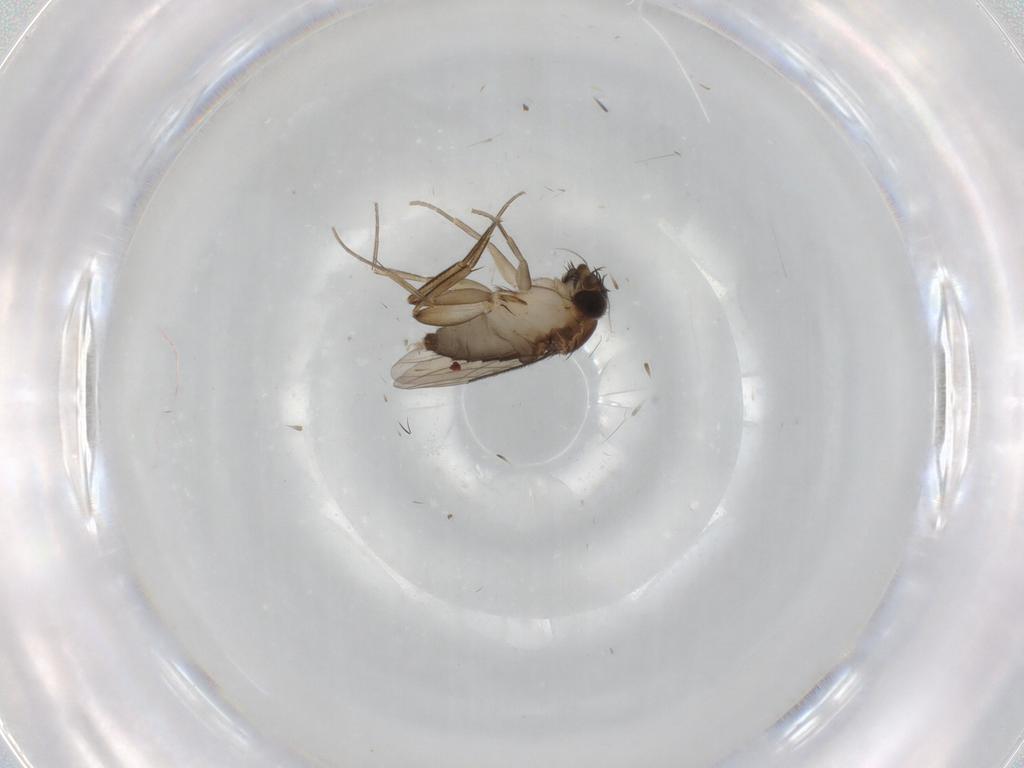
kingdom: Animalia
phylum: Arthropoda
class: Insecta
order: Diptera
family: Phoridae
